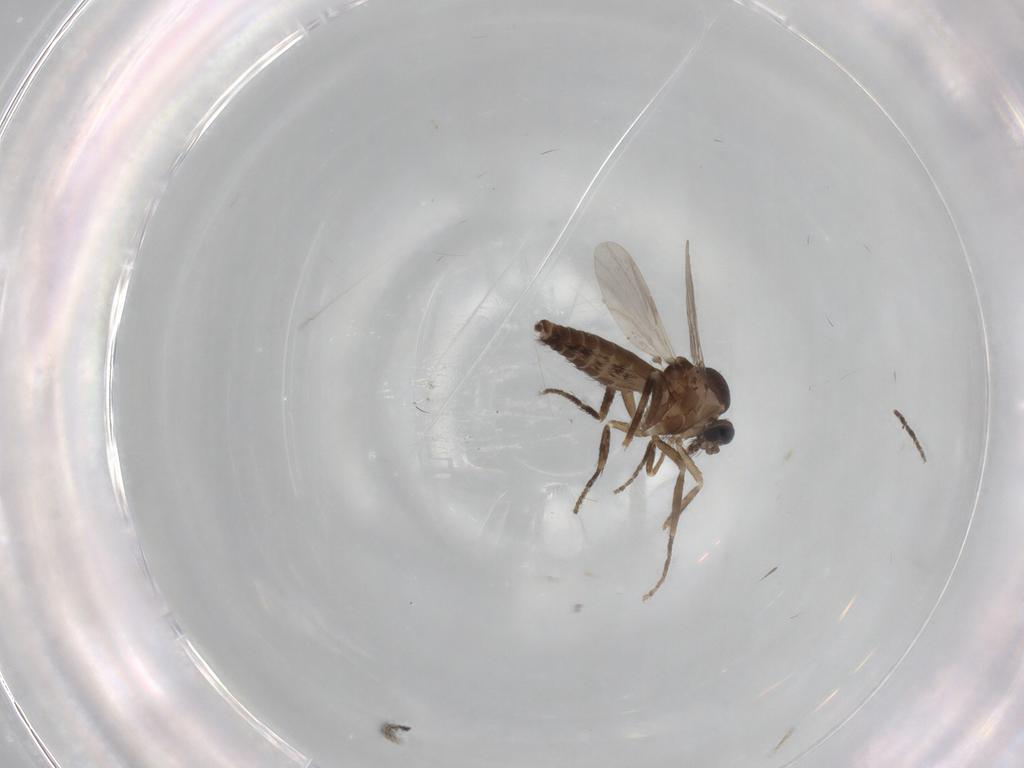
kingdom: Animalia
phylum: Arthropoda
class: Insecta
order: Diptera
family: Ceratopogonidae
